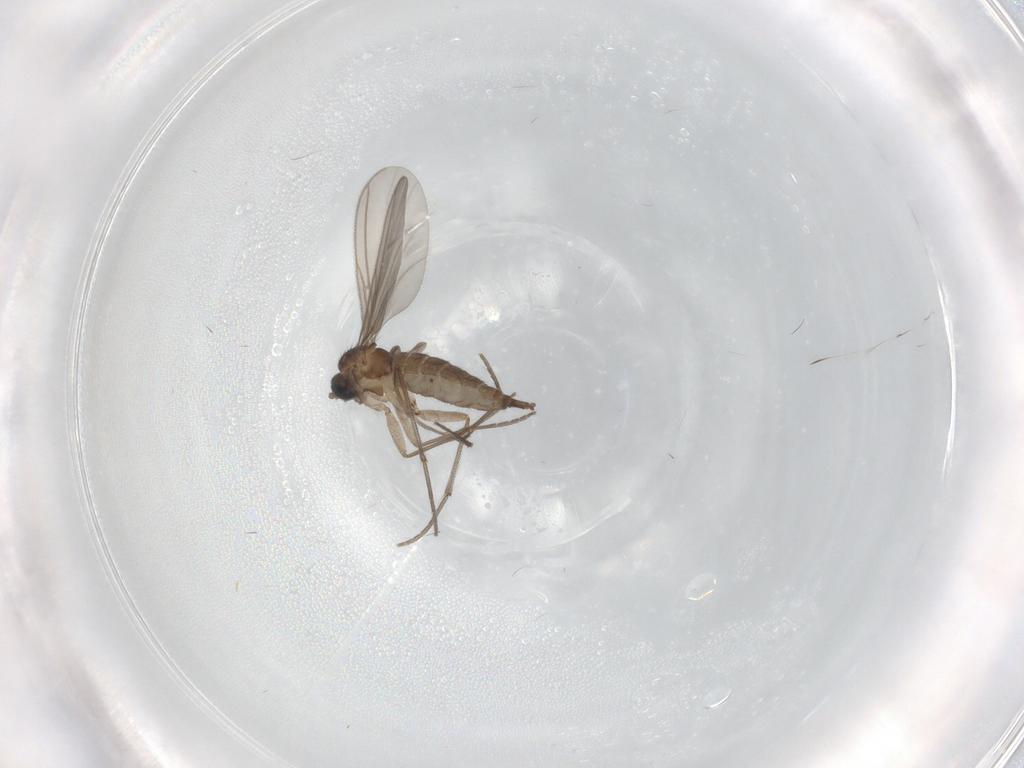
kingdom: Animalia
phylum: Arthropoda
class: Insecta
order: Diptera
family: Sciaridae
